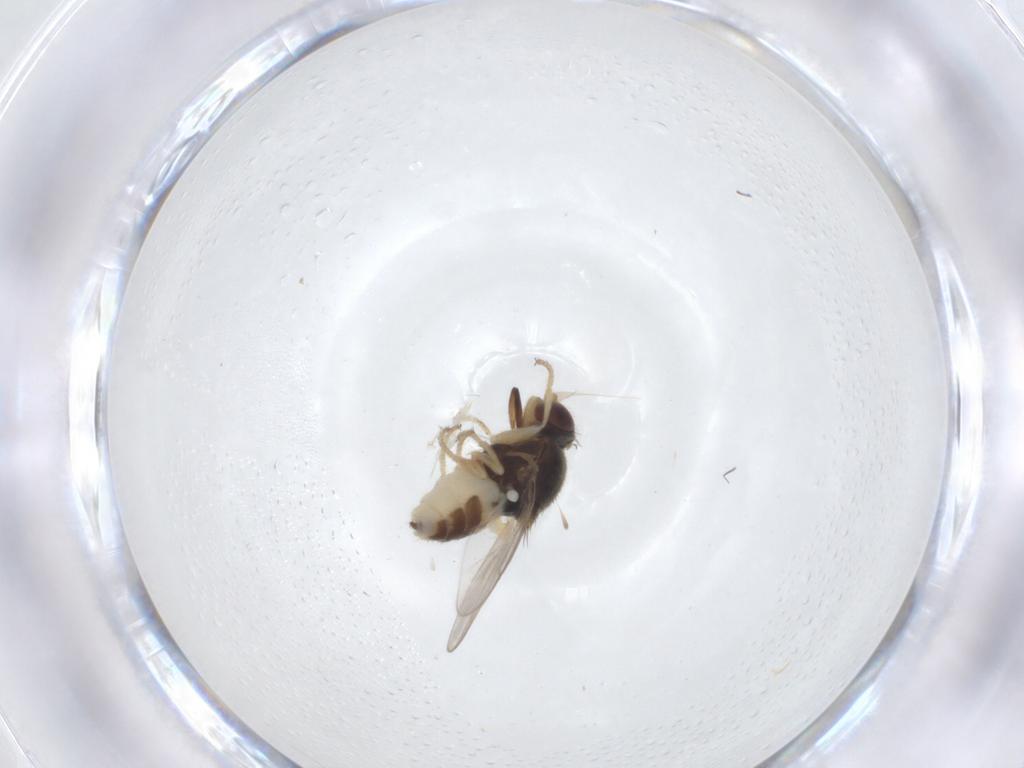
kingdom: Animalia
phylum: Arthropoda
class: Insecta
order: Diptera
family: Chloropidae
